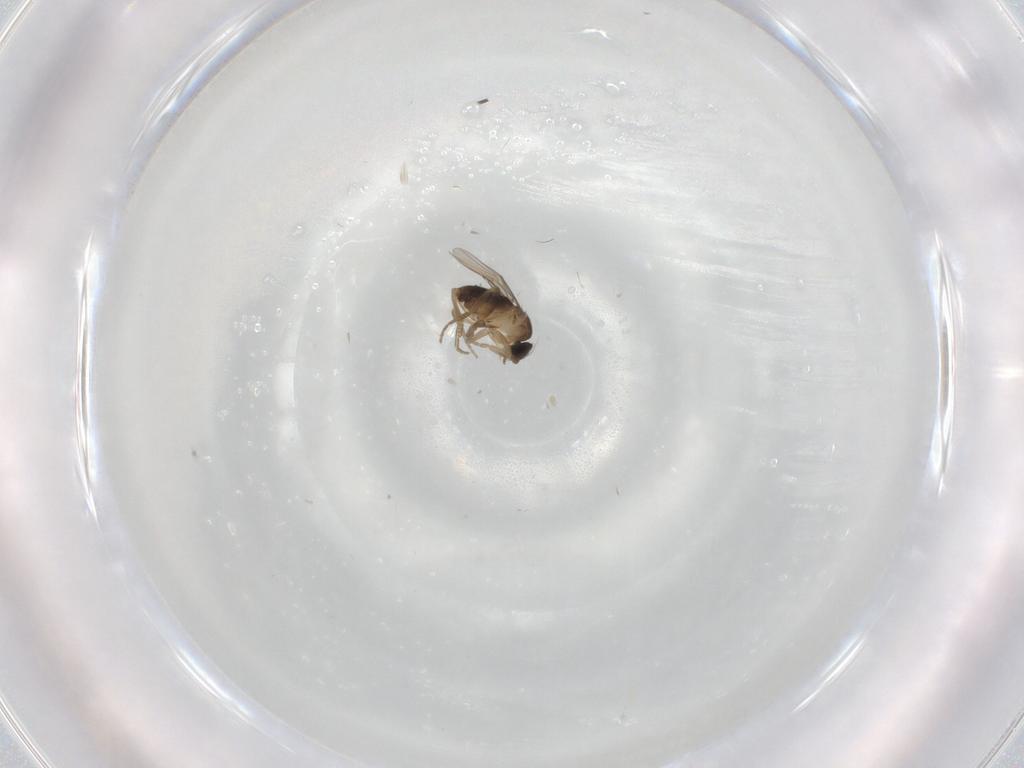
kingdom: Animalia
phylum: Arthropoda
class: Insecta
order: Diptera
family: Phoridae
